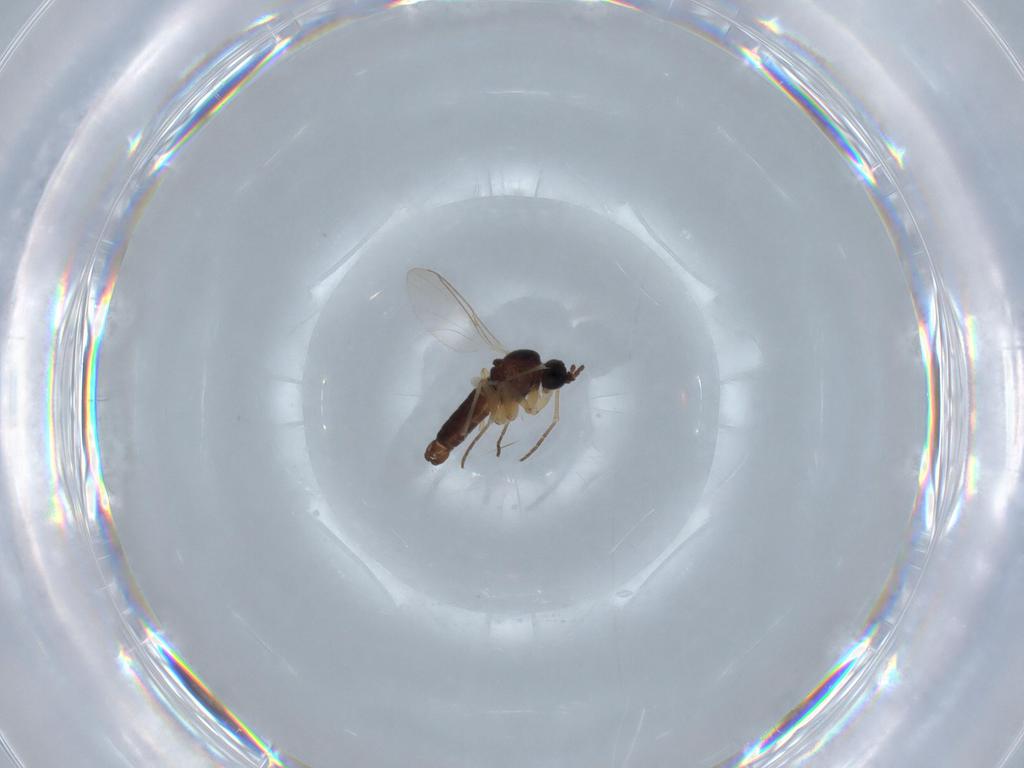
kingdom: Animalia
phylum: Arthropoda
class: Insecta
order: Diptera
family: Sciaridae
